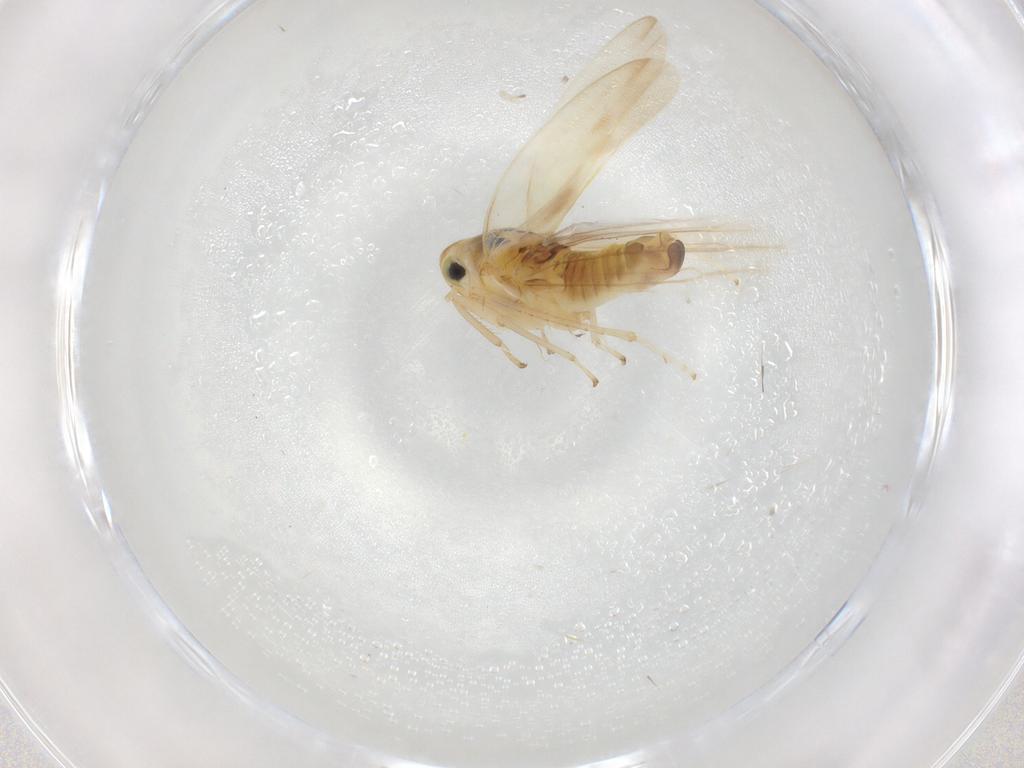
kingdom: Animalia
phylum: Arthropoda
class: Insecta
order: Hemiptera
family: Cicadellidae
